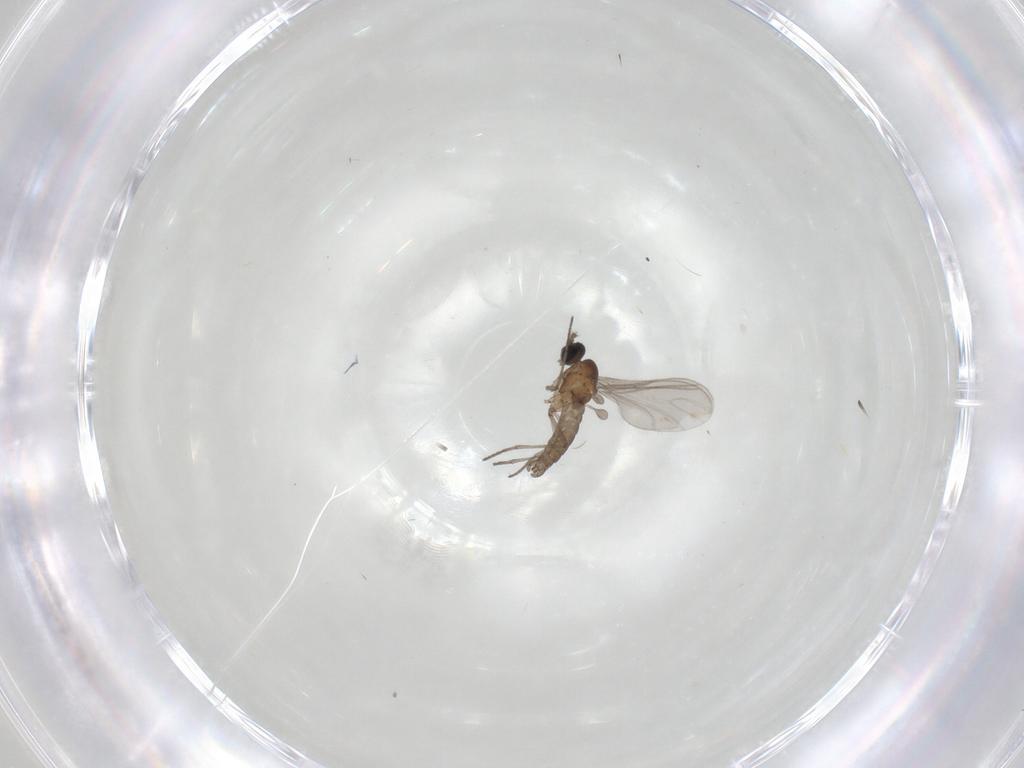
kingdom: Animalia
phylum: Arthropoda
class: Insecta
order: Diptera
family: Sciaridae
